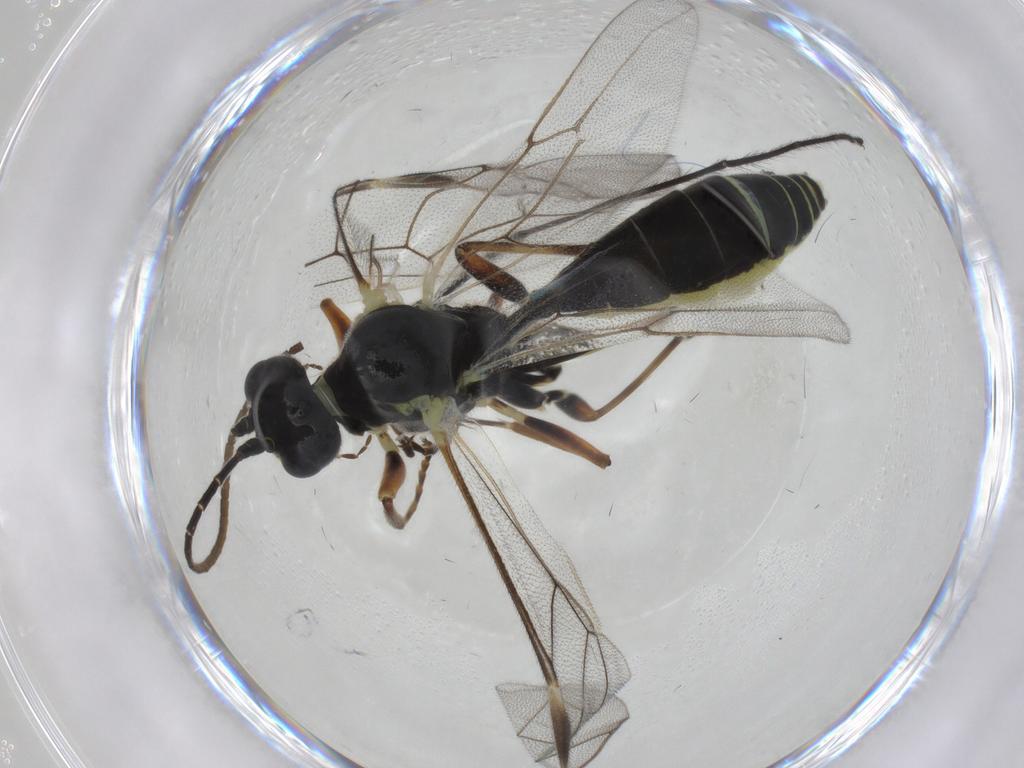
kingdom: Animalia
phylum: Arthropoda
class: Insecta
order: Hymenoptera
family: Ichneumonidae
